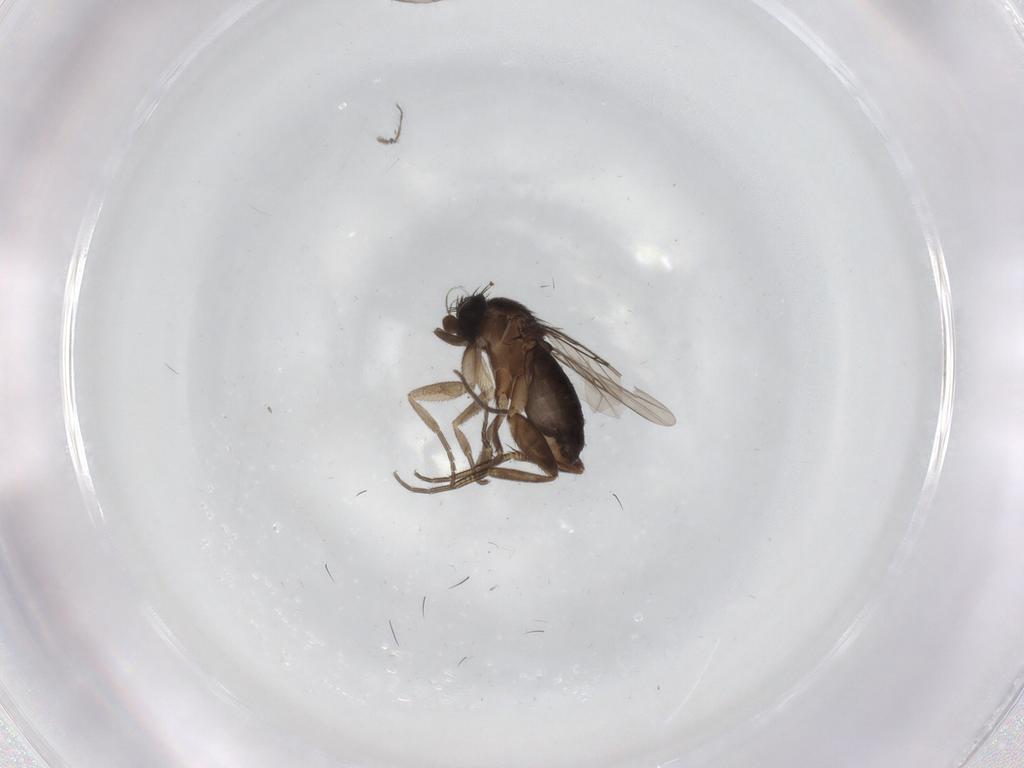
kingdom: Animalia
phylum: Arthropoda
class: Insecta
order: Diptera
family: Phoridae
